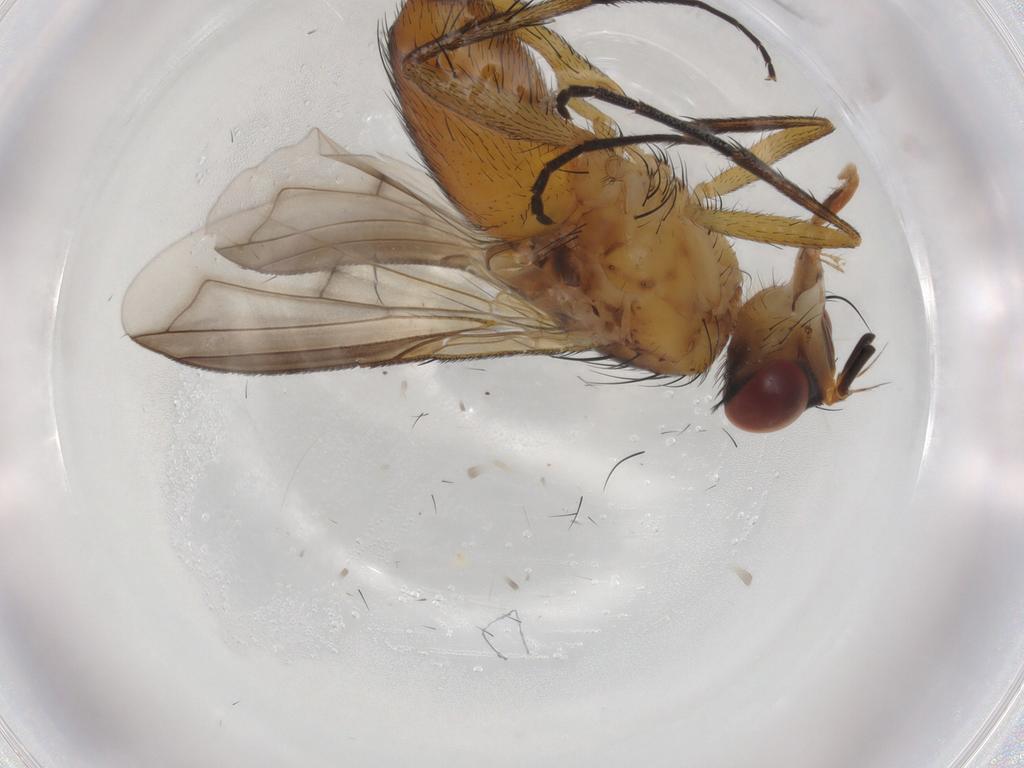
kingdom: Animalia
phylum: Arthropoda
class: Insecta
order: Diptera
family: Tachinidae
